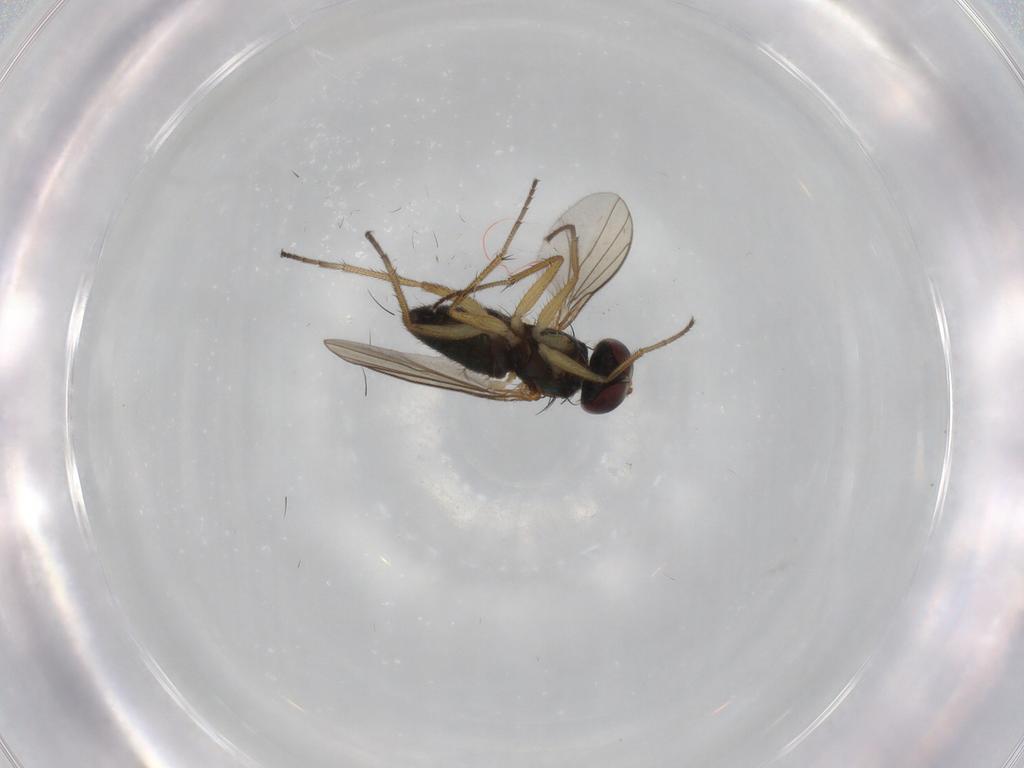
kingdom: Animalia
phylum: Arthropoda
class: Insecta
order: Diptera
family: Dolichopodidae
